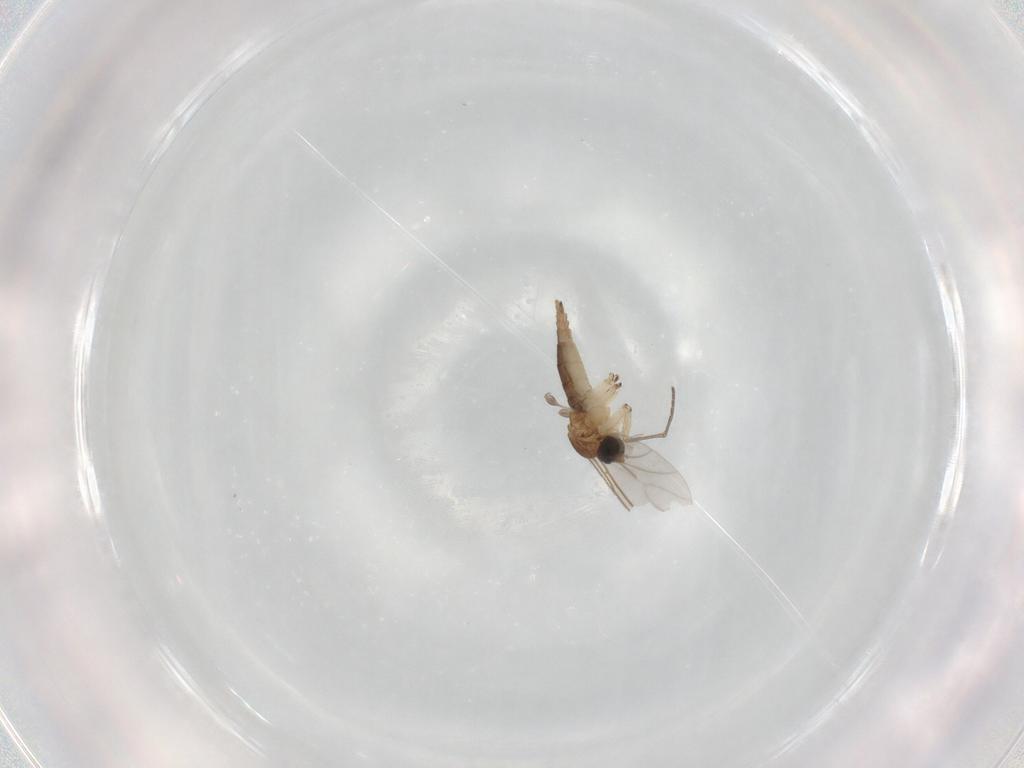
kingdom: Animalia
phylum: Arthropoda
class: Insecta
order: Diptera
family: Sciaridae
